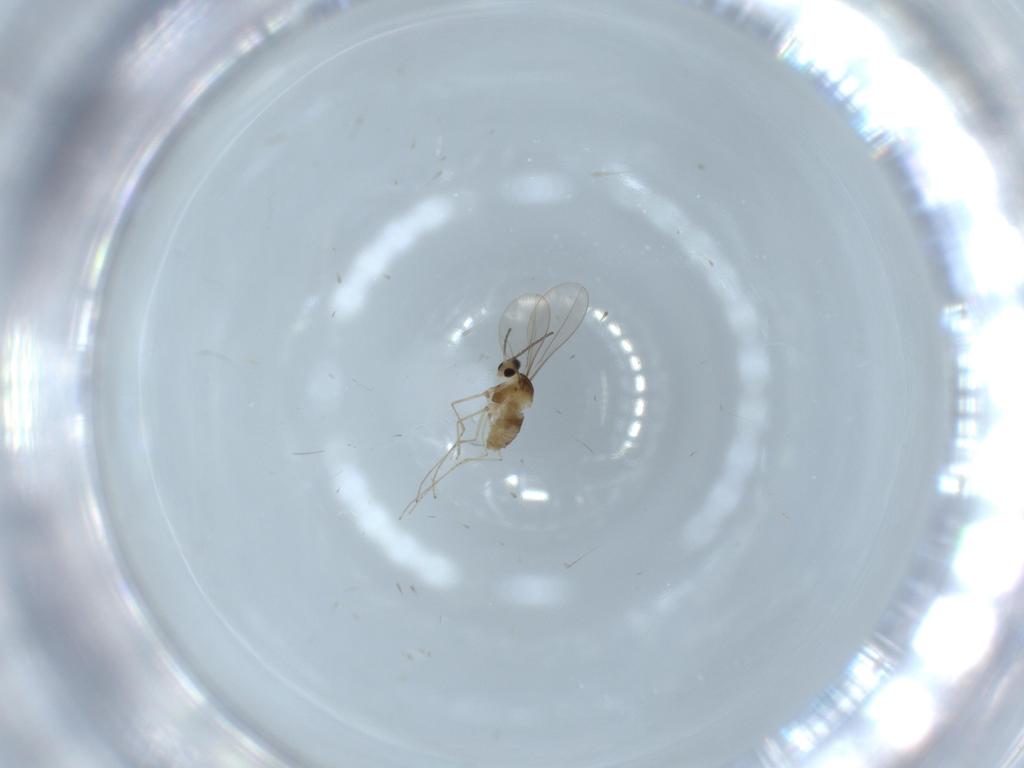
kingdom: Animalia
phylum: Arthropoda
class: Insecta
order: Diptera
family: Cecidomyiidae
